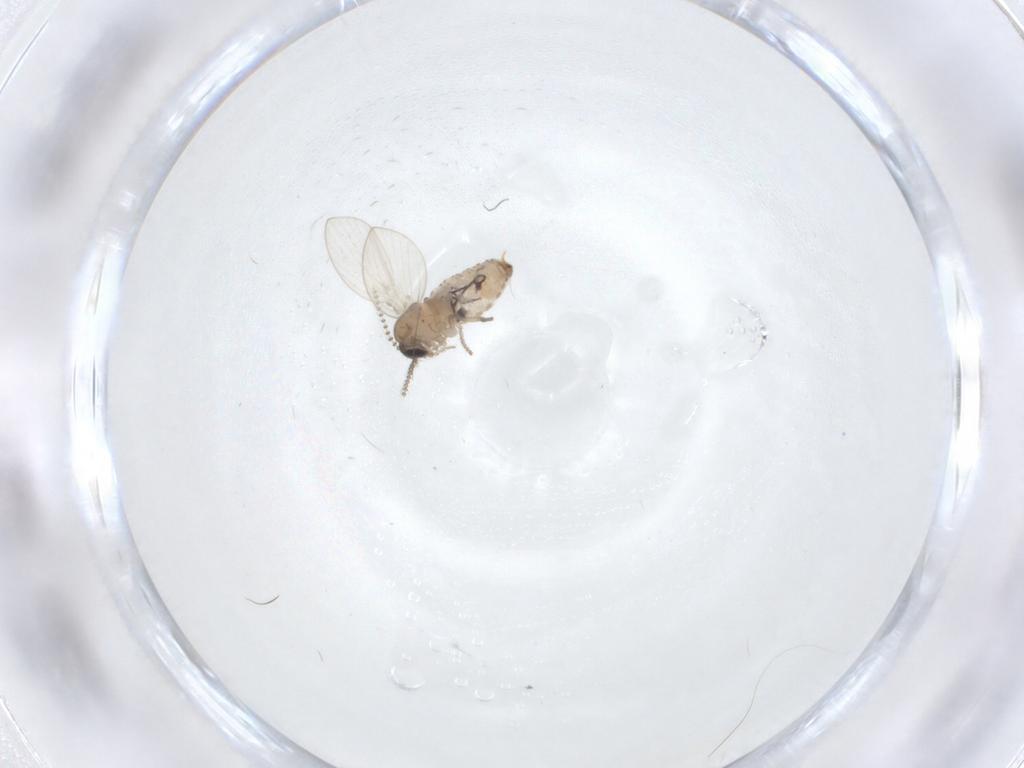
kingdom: Animalia
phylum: Arthropoda
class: Insecta
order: Diptera
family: Psychodidae
